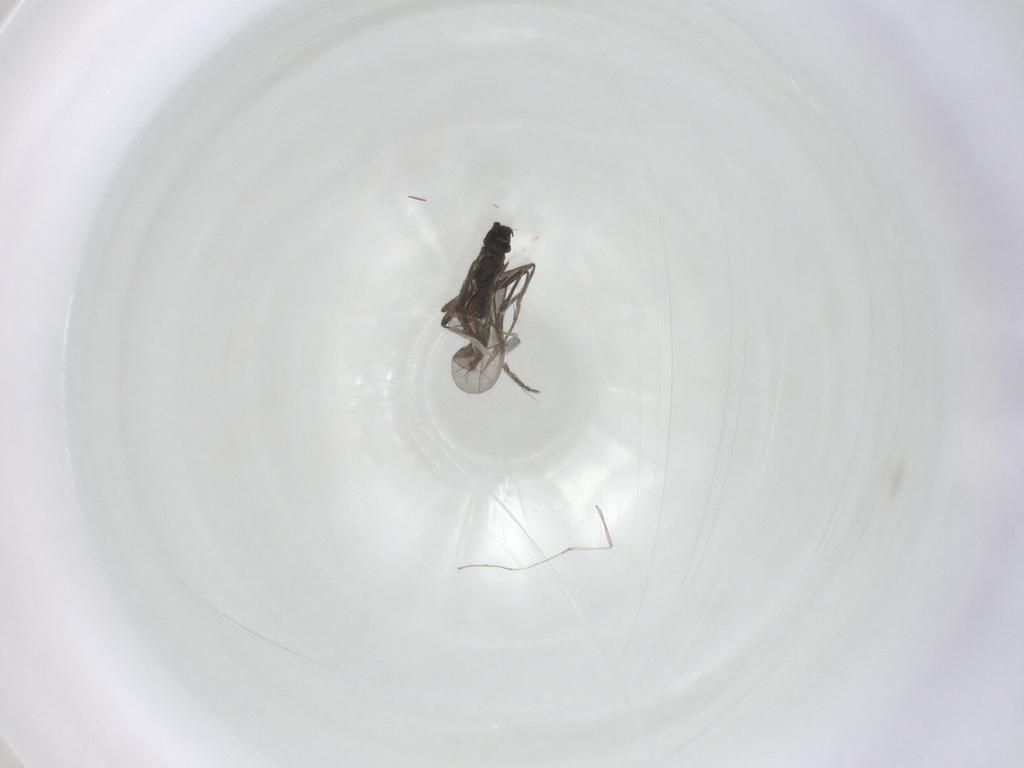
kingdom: Animalia
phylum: Arthropoda
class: Insecta
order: Diptera
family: Phoridae
